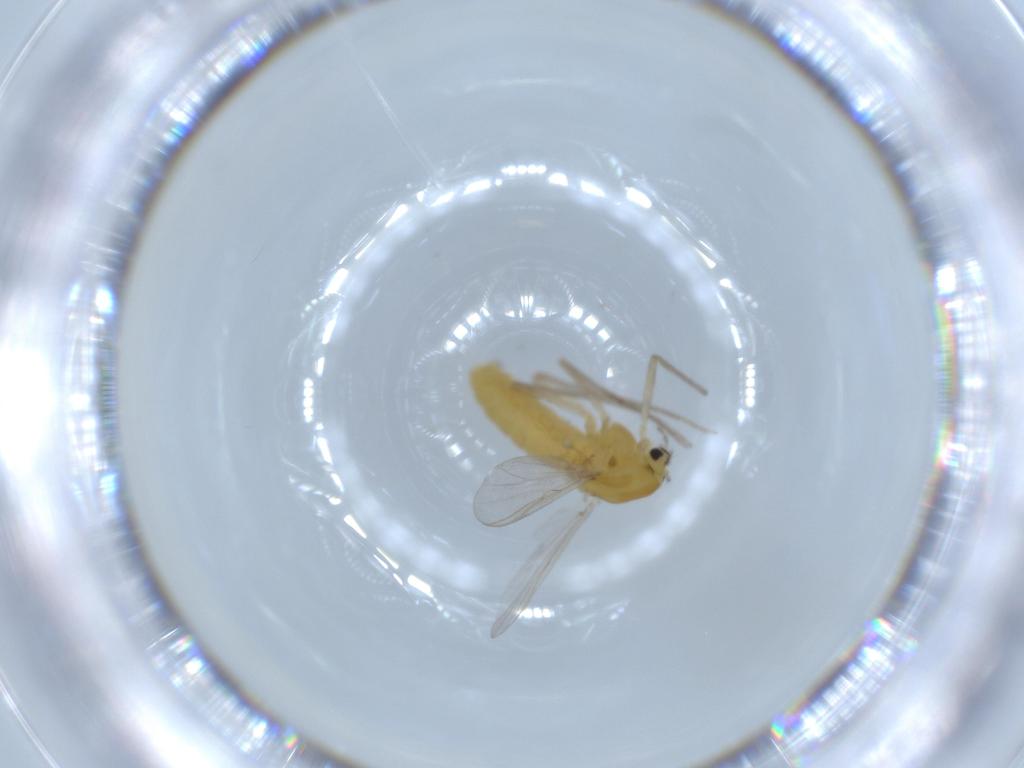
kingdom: Animalia
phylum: Arthropoda
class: Insecta
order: Diptera
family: Chironomidae
